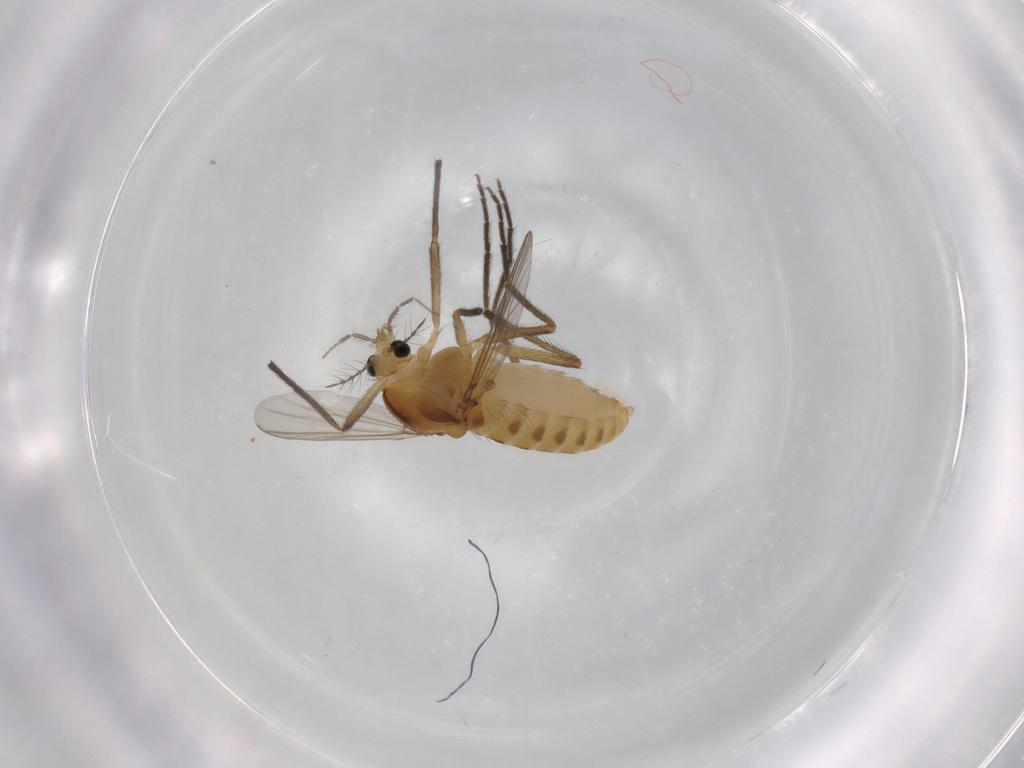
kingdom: Animalia
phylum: Arthropoda
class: Insecta
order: Diptera
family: Chironomidae
